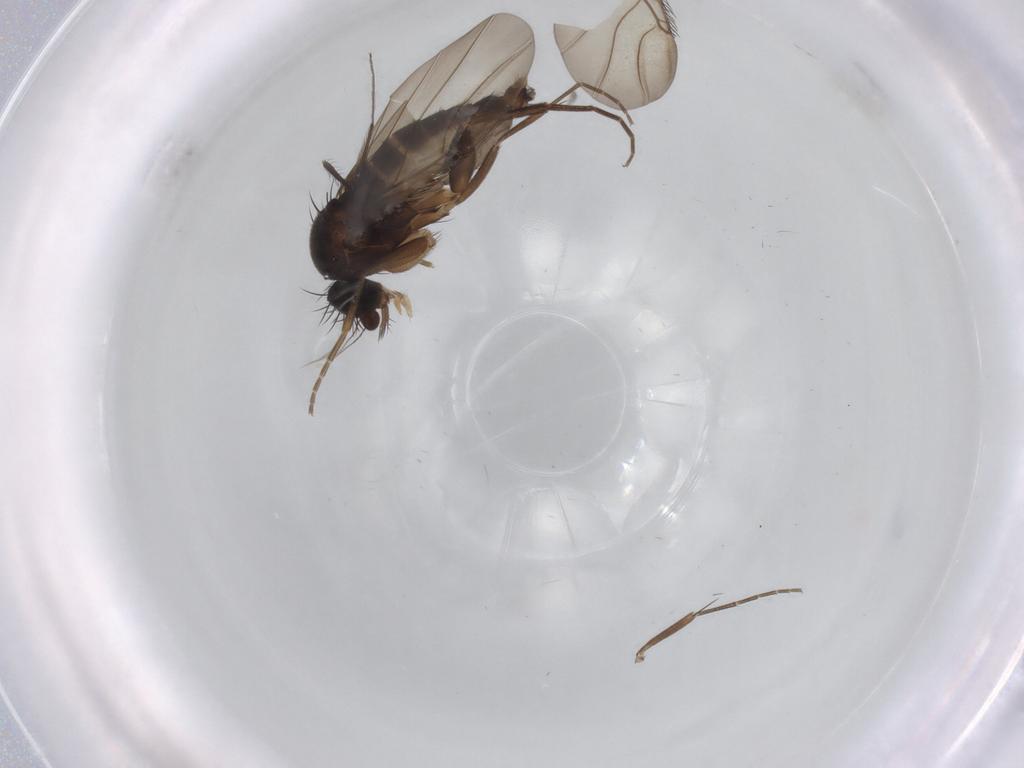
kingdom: Animalia
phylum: Arthropoda
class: Insecta
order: Diptera
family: Phoridae
